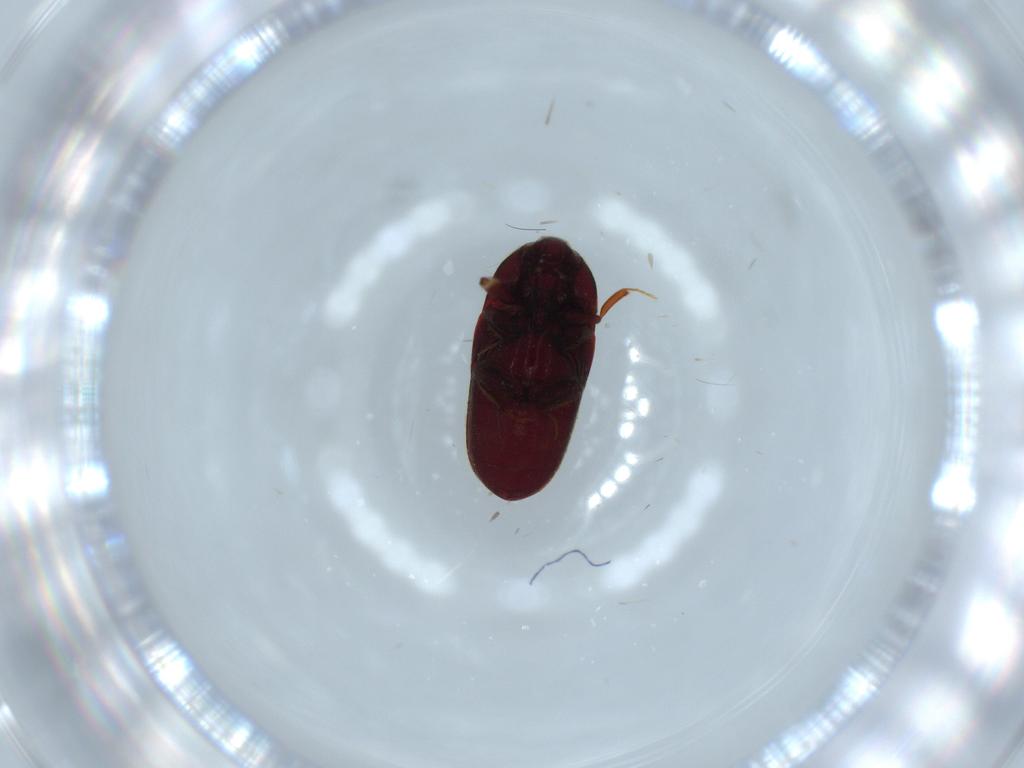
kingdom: Animalia
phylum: Arthropoda
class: Insecta
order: Coleoptera
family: Throscidae
